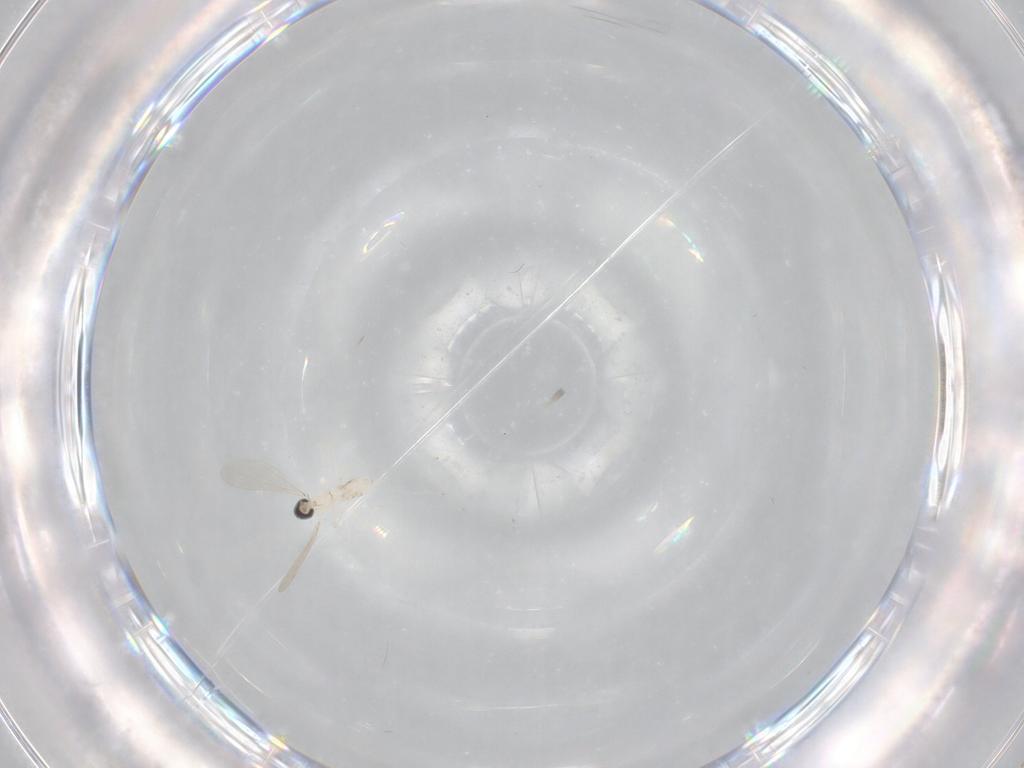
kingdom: Animalia
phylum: Arthropoda
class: Insecta
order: Diptera
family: Cecidomyiidae
